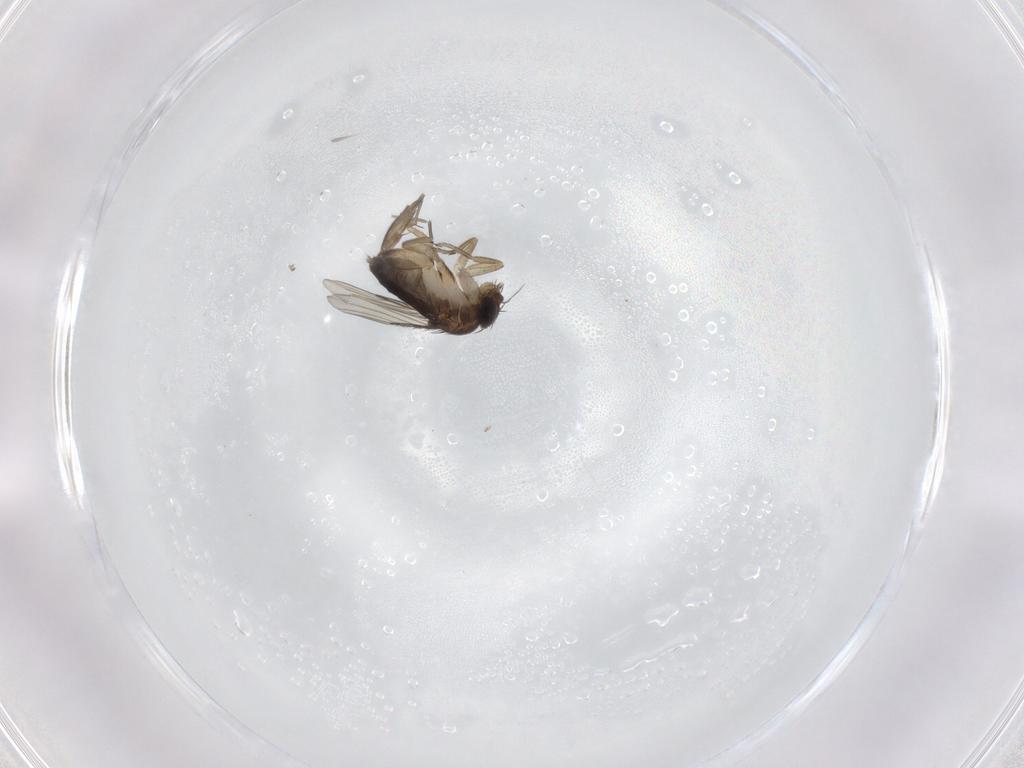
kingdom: Animalia
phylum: Arthropoda
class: Insecta
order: Diptera
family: Phoridae
